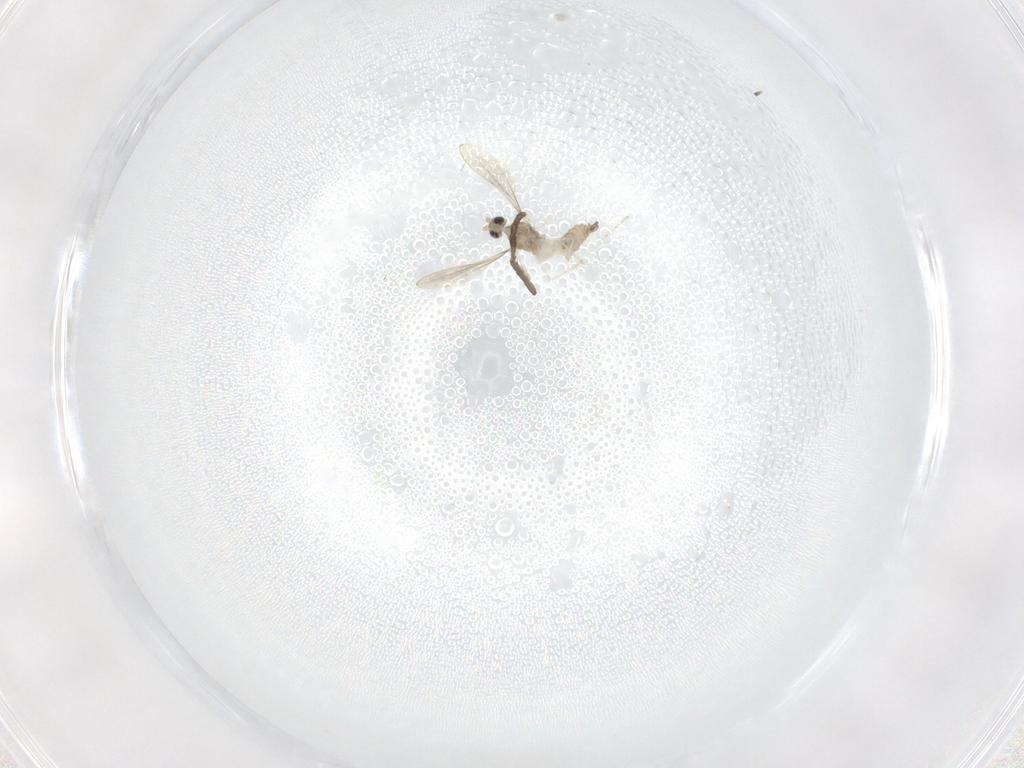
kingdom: Animalia
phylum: Arthropoda
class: Insecta
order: Diptera
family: Cecidomyiidae
